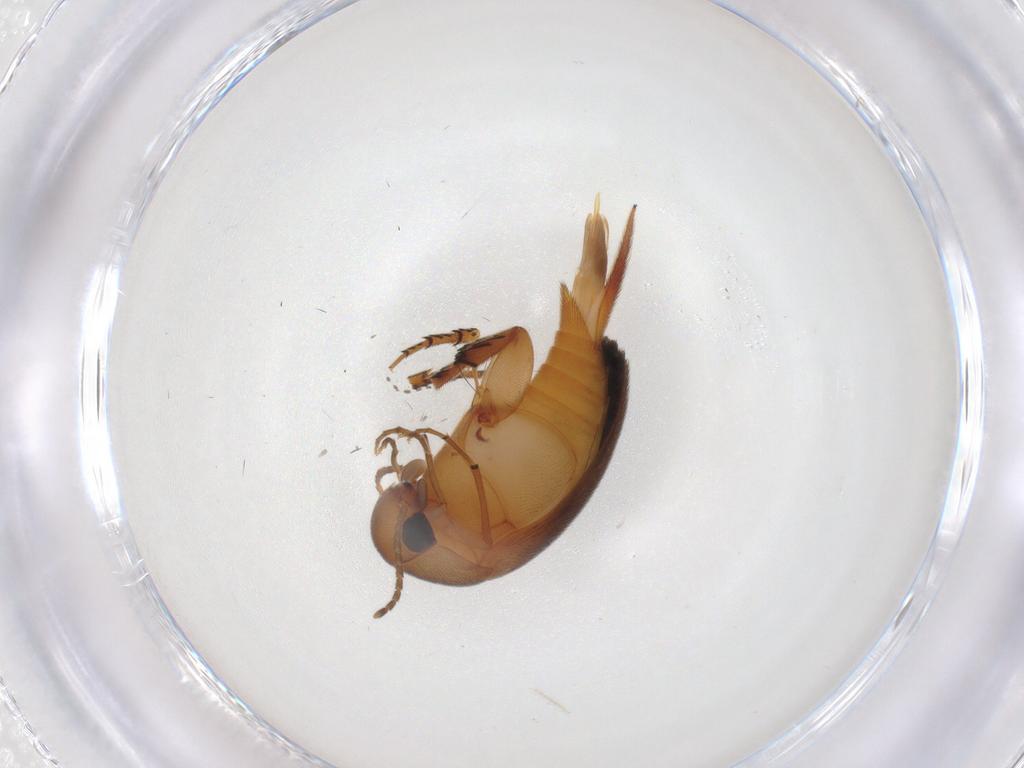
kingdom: Animalia
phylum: Arthropoda
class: Insecta
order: Coleoptera
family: Mordellidae
